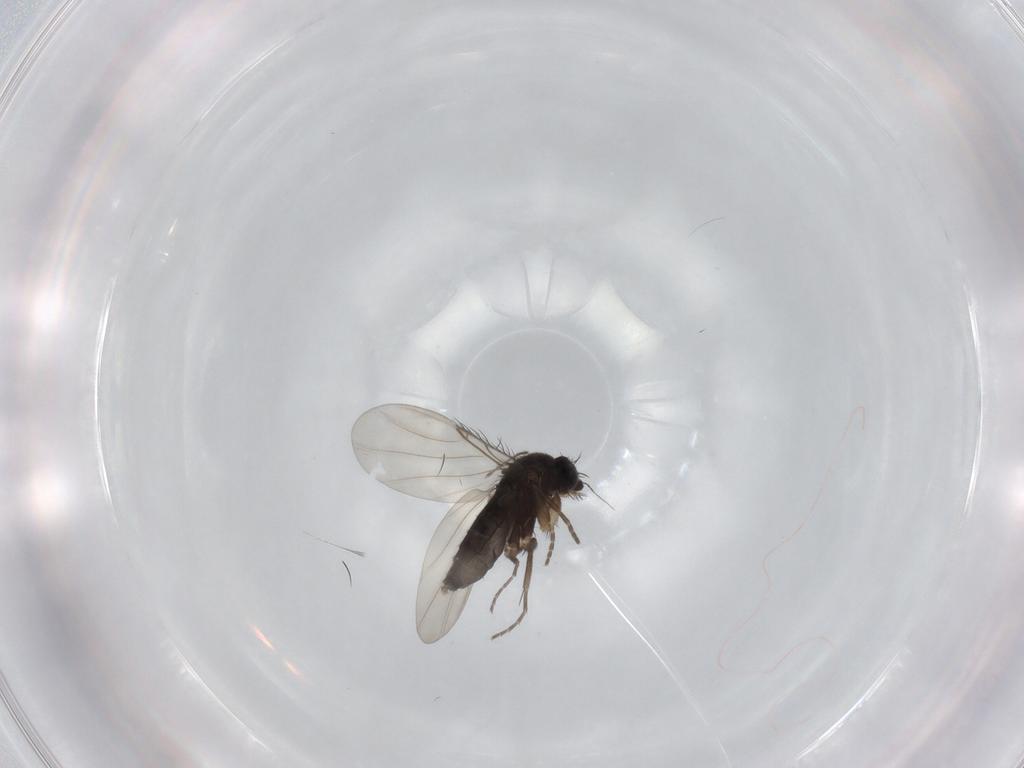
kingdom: Animalia
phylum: Arthropoda
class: Insecta
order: Diptera
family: Phoridae
